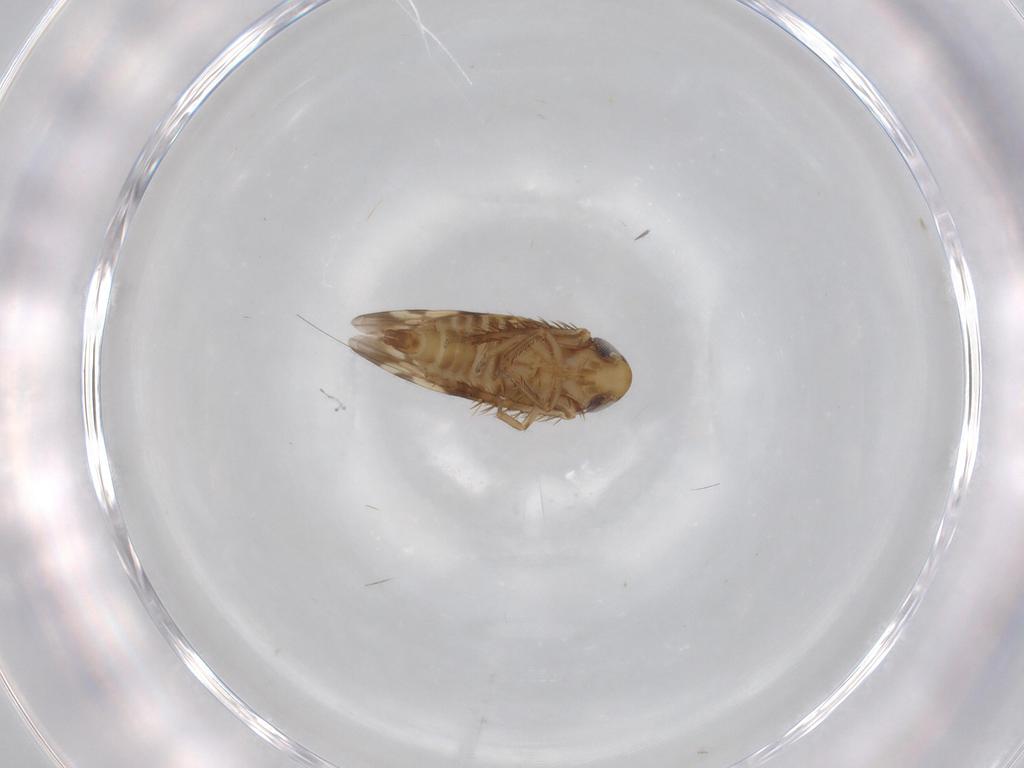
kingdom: Animalia
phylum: Arthropoda
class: Insecta
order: Hemiptera
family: Cicadellidae
